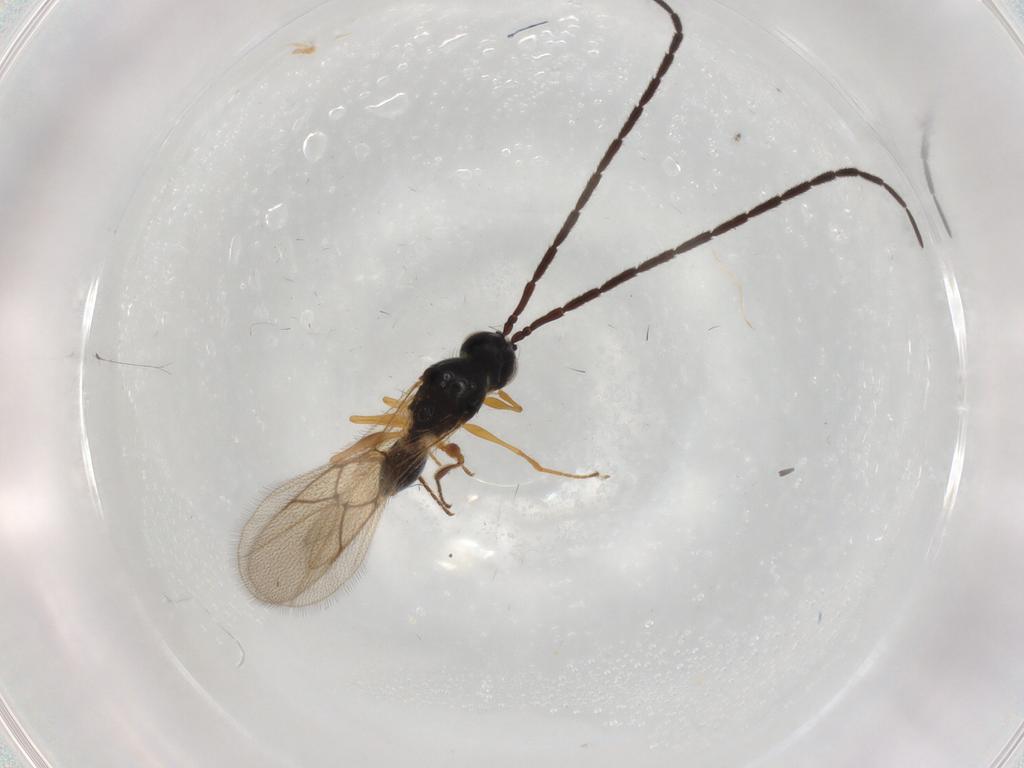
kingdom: Animalia
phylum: Arthropoda
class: Insecta
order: Hymenoptera
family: Figitidae
